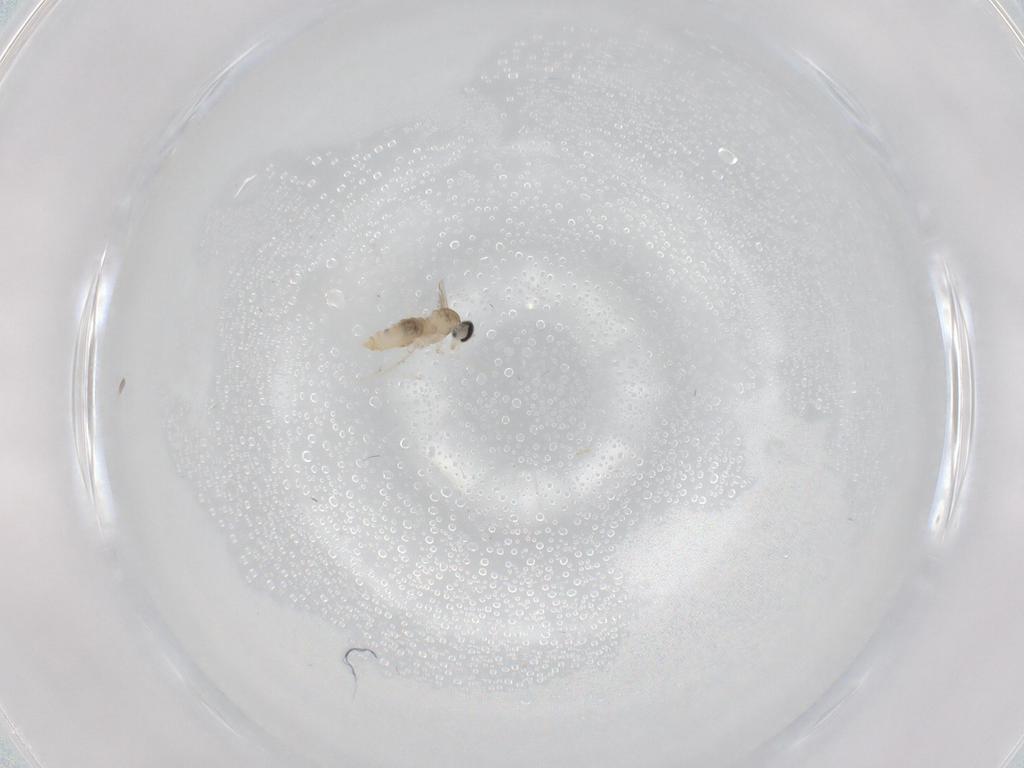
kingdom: Animalia
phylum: Arthropoda
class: Insecta
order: Diptera
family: Cecidomyiidae
